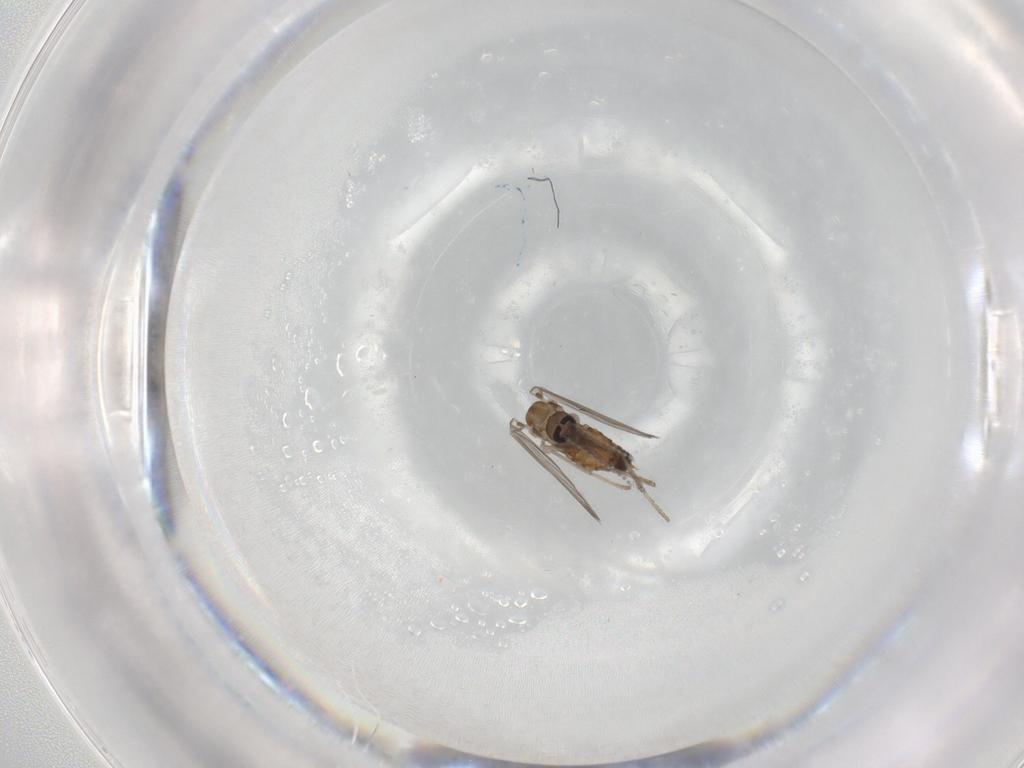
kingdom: Animalia
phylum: Arthropoda
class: Insecta
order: Diptera
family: Psychodidae
